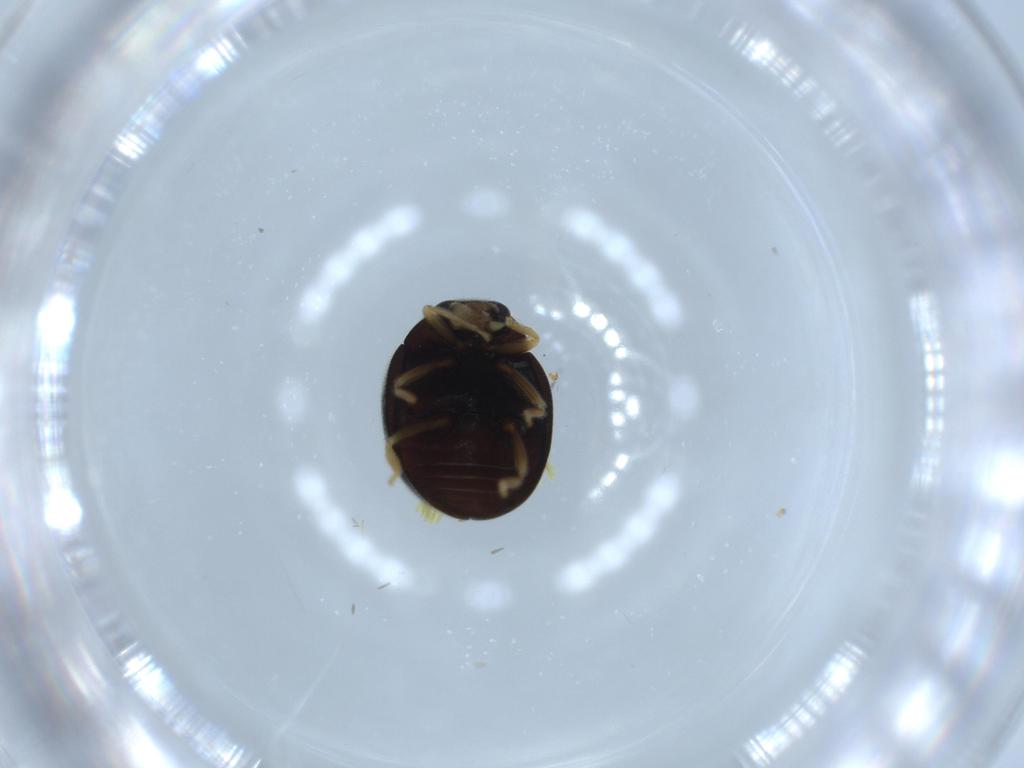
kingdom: Animalia
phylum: Arthropoda
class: Insecta
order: Coleoptera
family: Coccinellidae
